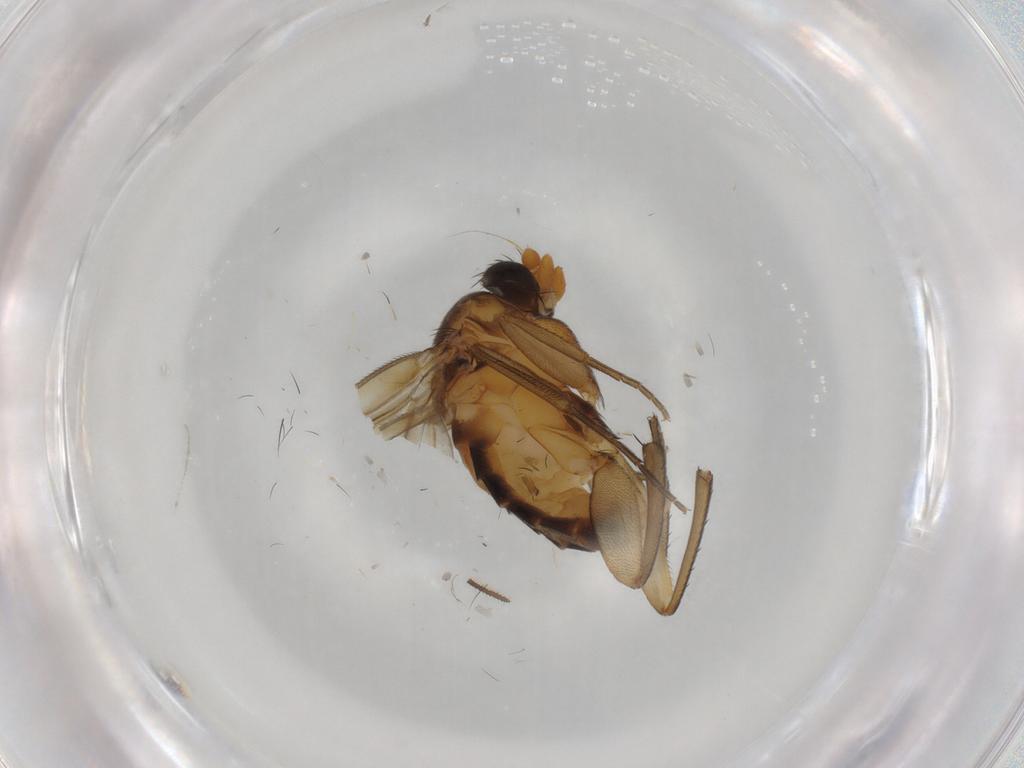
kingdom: Animalia
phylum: Arthropoda
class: Insecta
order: Diptera
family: Phoridae
